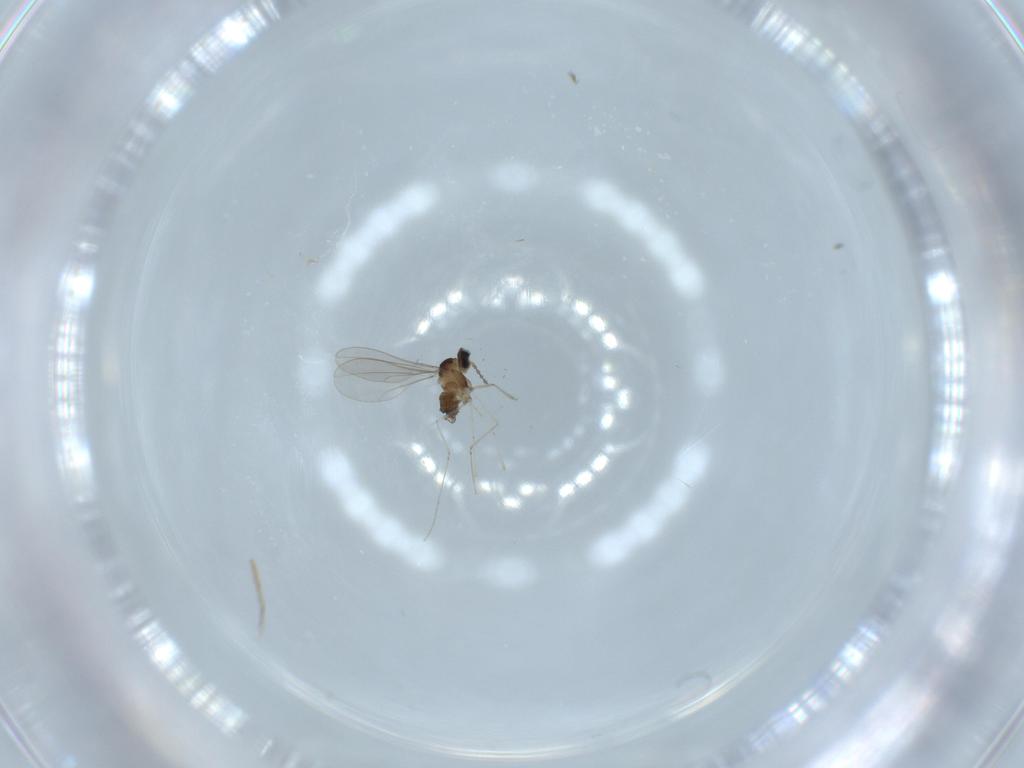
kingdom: Animalia
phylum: Arthropoda
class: Insecta
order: Diptera
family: Cecidomyiidae
